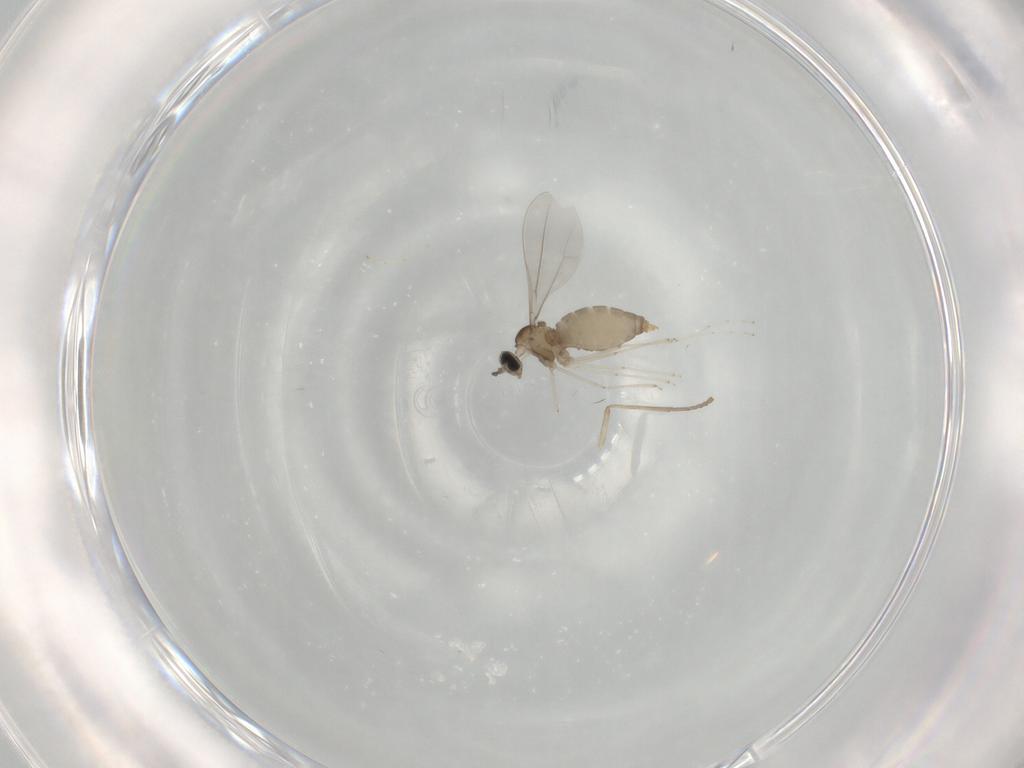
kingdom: Animalia
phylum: Arthropoda
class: Insecta
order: Diptera
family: Cecidomyiidae
